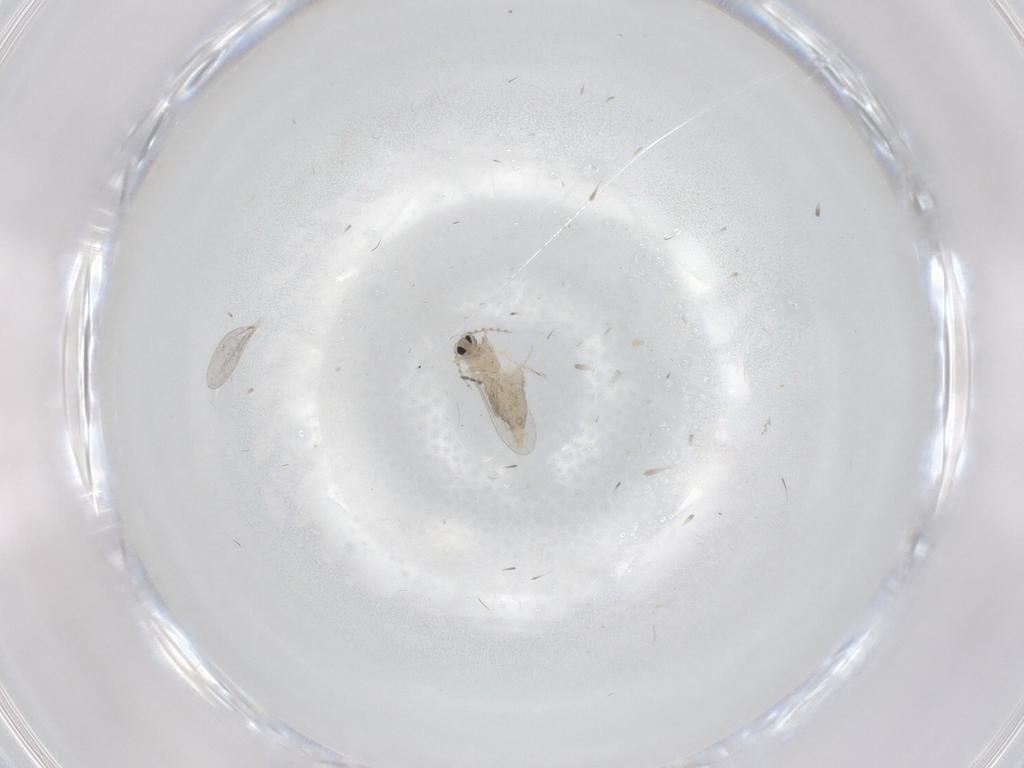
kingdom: Animalia
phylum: Arthropoda
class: Insecta
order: Diptera
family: Cecidomyiidae
